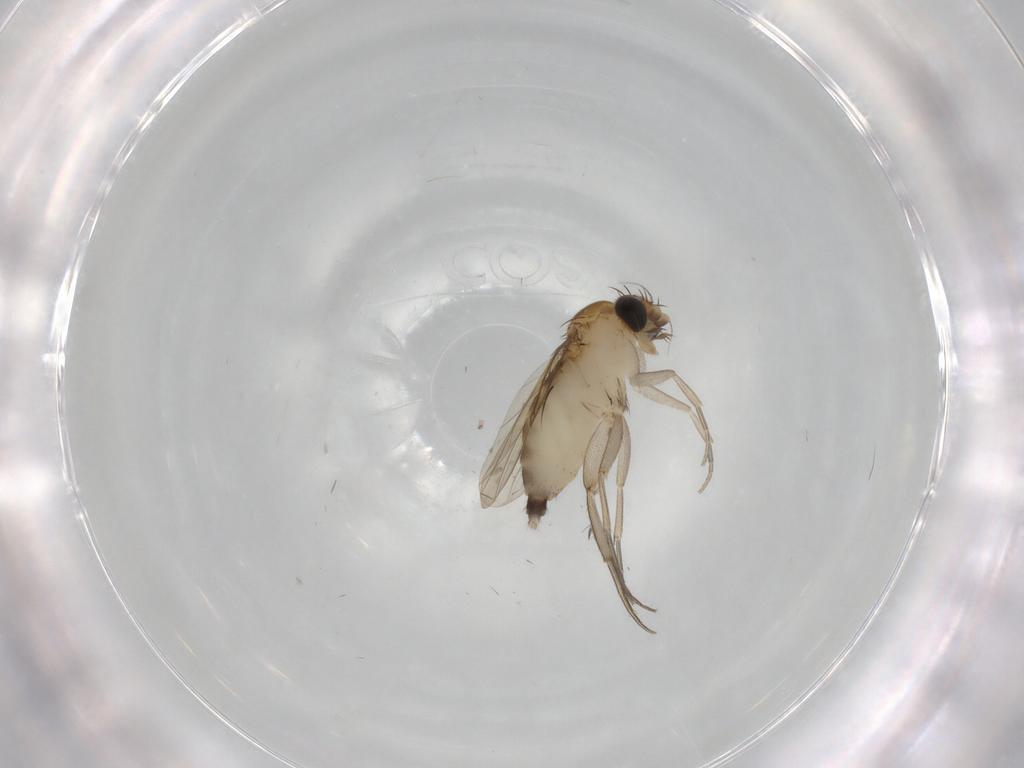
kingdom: Animalia
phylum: Arthropoda
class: Insecta
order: Diptera
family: Phoridae
